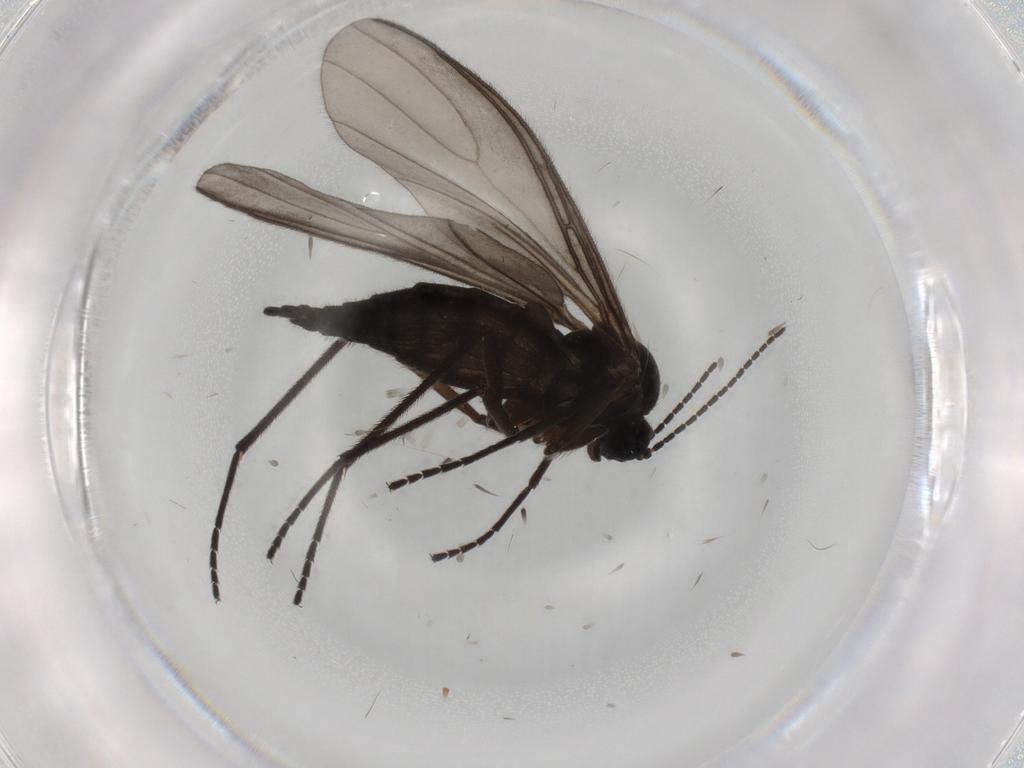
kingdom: Animalia
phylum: Arthropoda
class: Insecta
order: Diptera
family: Sciaridae
